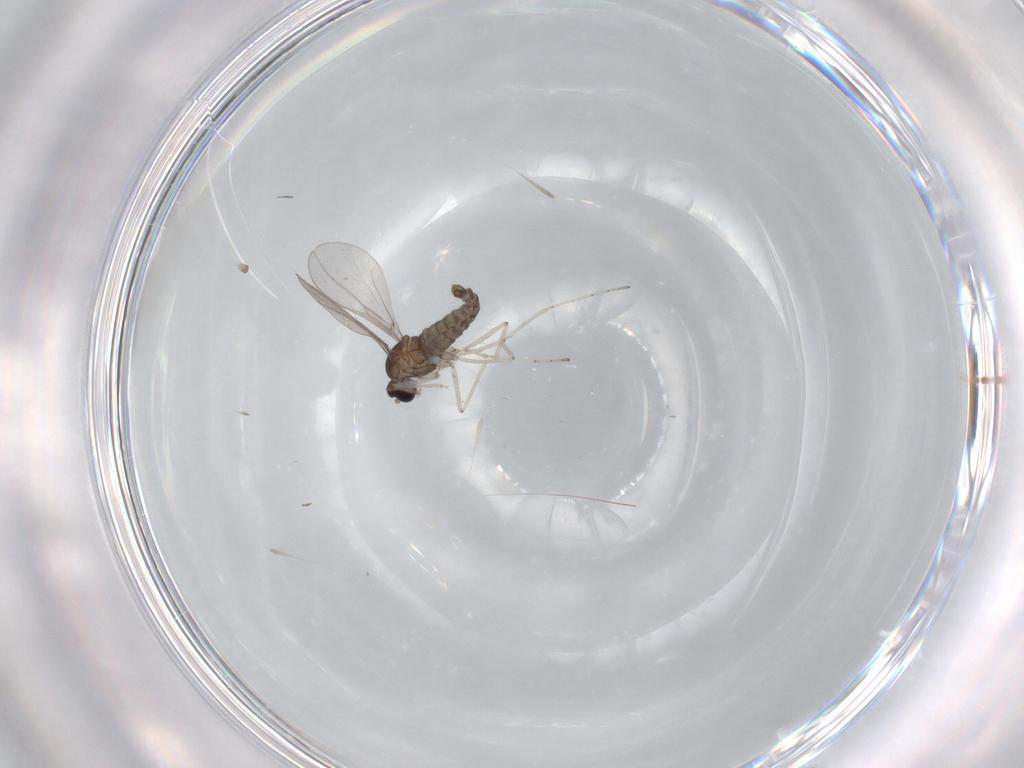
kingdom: Animalia
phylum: Arthropoda
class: Insecta
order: Diptera
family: Cecidomyiidae
